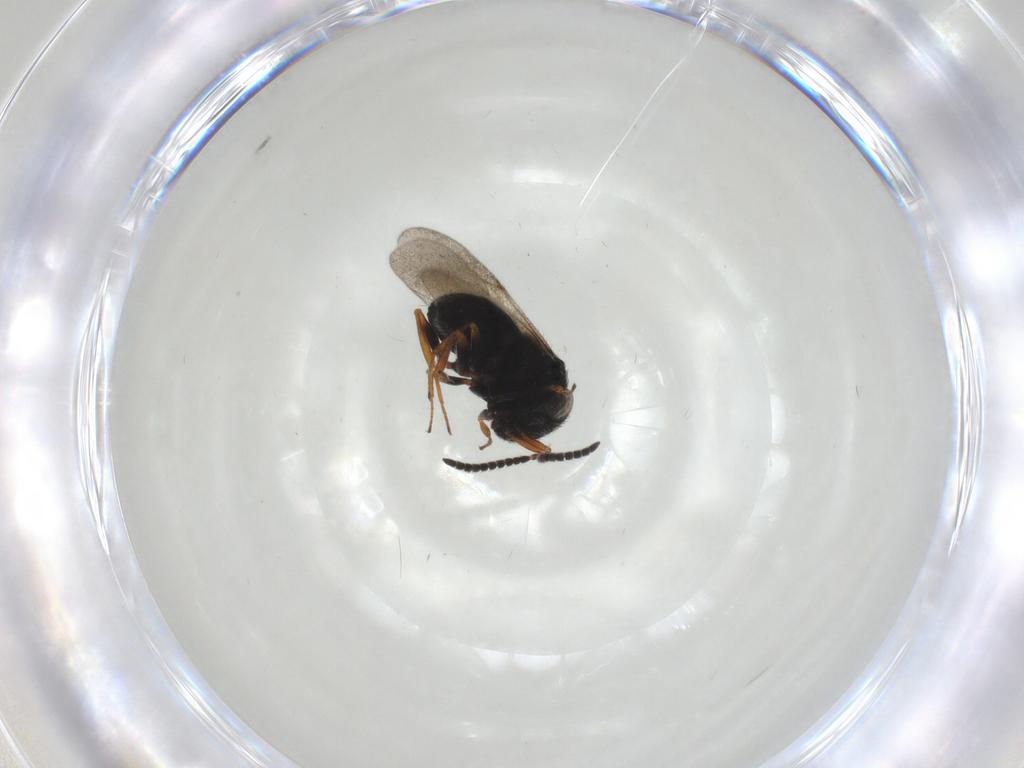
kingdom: Animalia
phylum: Arthropoda
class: Insecta
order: Hymenoptera
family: Scelionidae
